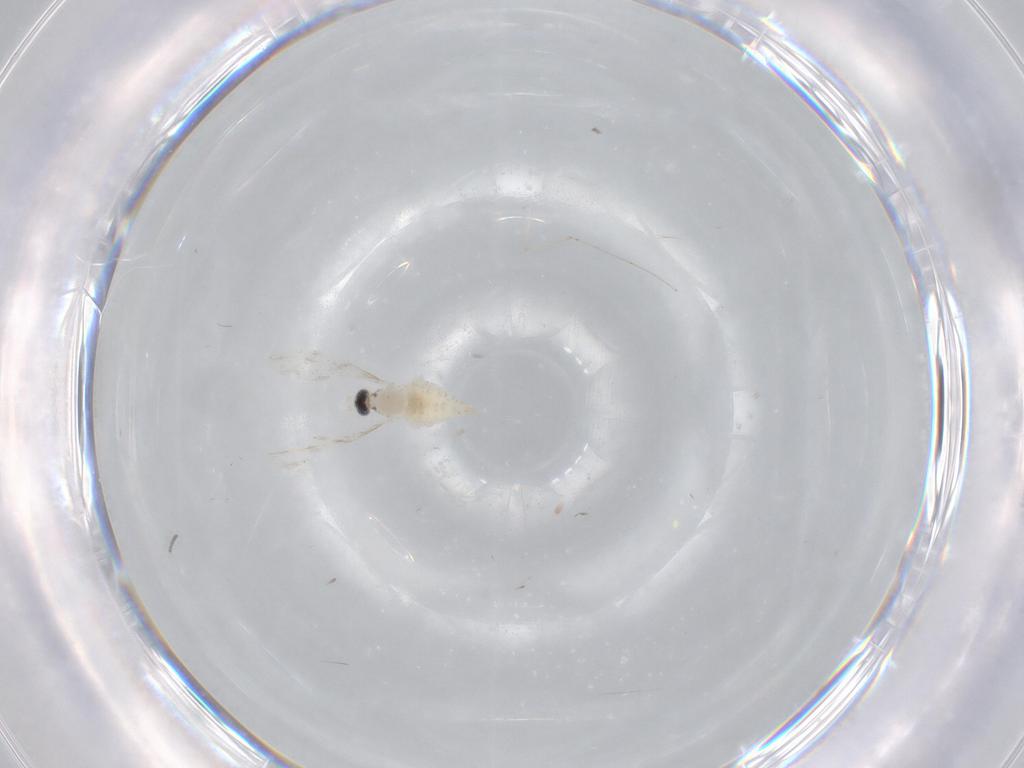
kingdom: Animalia
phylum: Arthropoda
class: Insecta
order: Diptera
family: Cecidomyiidae
